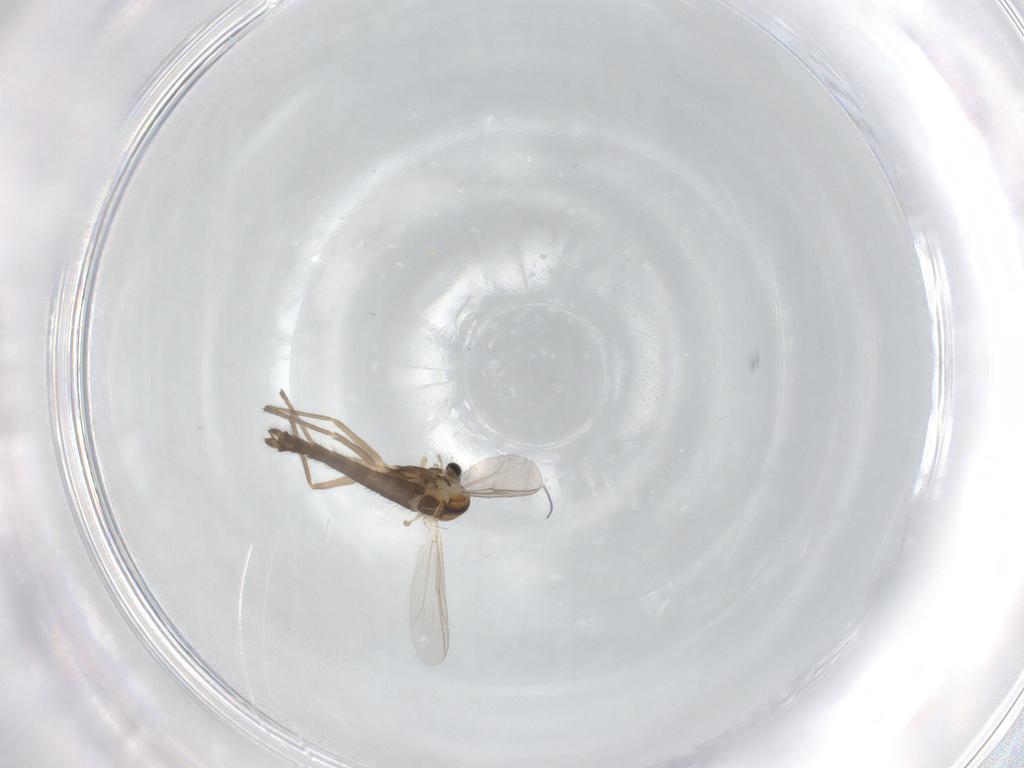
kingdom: Animalia
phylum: Arthropoda
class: Insecta
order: Diptera
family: Chironomidae
